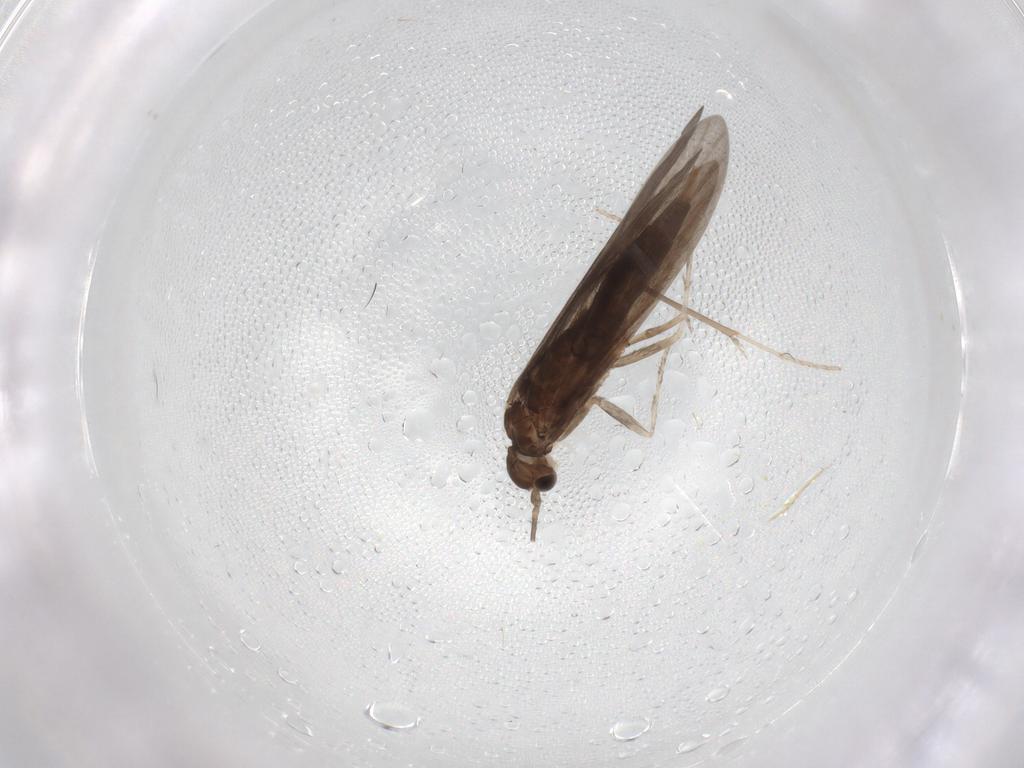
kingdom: Animalia
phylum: Arthropoda
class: Insecta
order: Trichoptera
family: Xiphocentronidae
